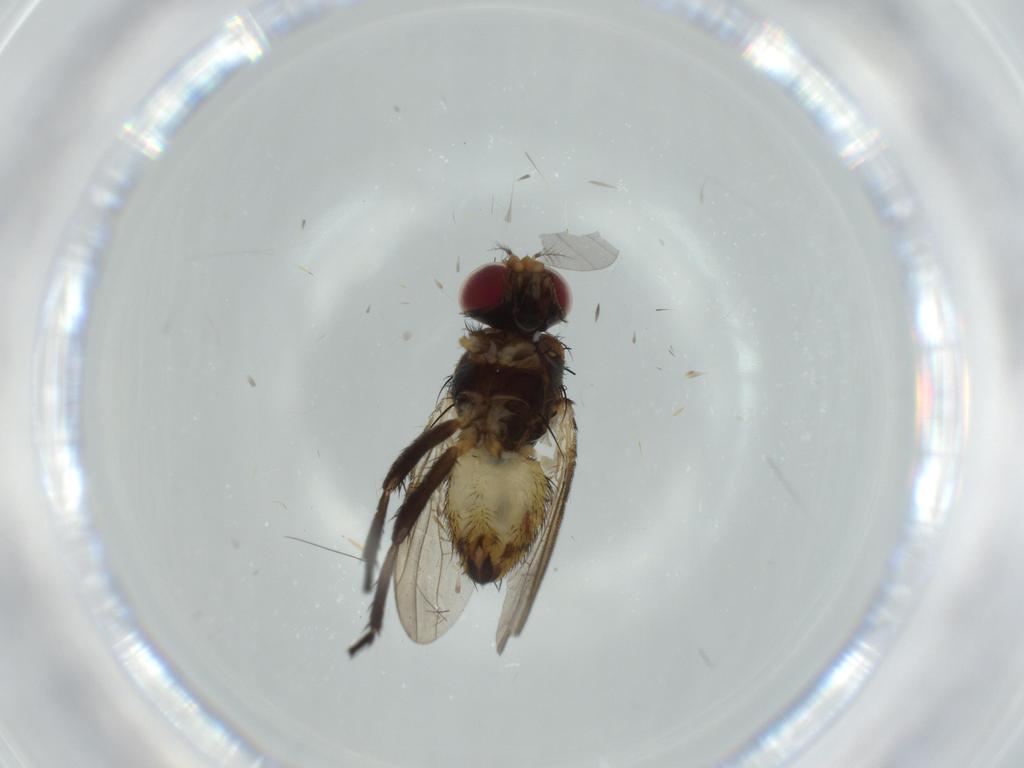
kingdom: Animalia
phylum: Arthropoda
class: Insecta
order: Diptera
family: Anthomyiidae
